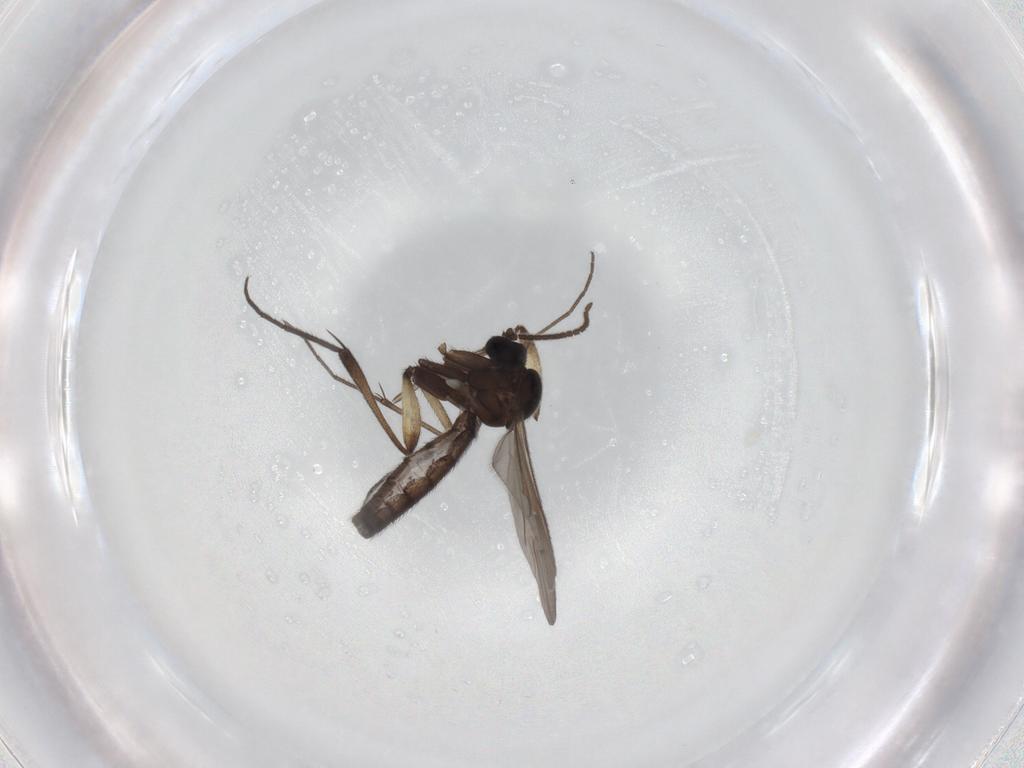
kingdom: Animalia
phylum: Arthropoda
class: Insecta
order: Diptera
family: Keroplatidae
